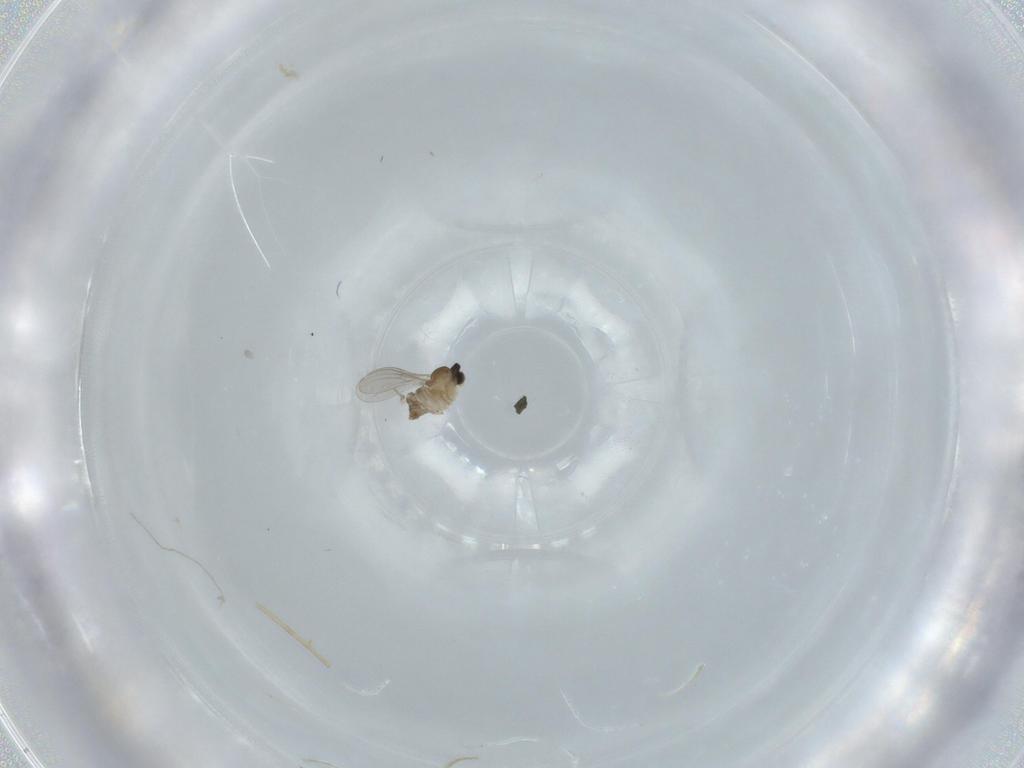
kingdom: Animalia
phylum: Arthropoda
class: Insecta
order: Diptera
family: Cecidomyiidae
